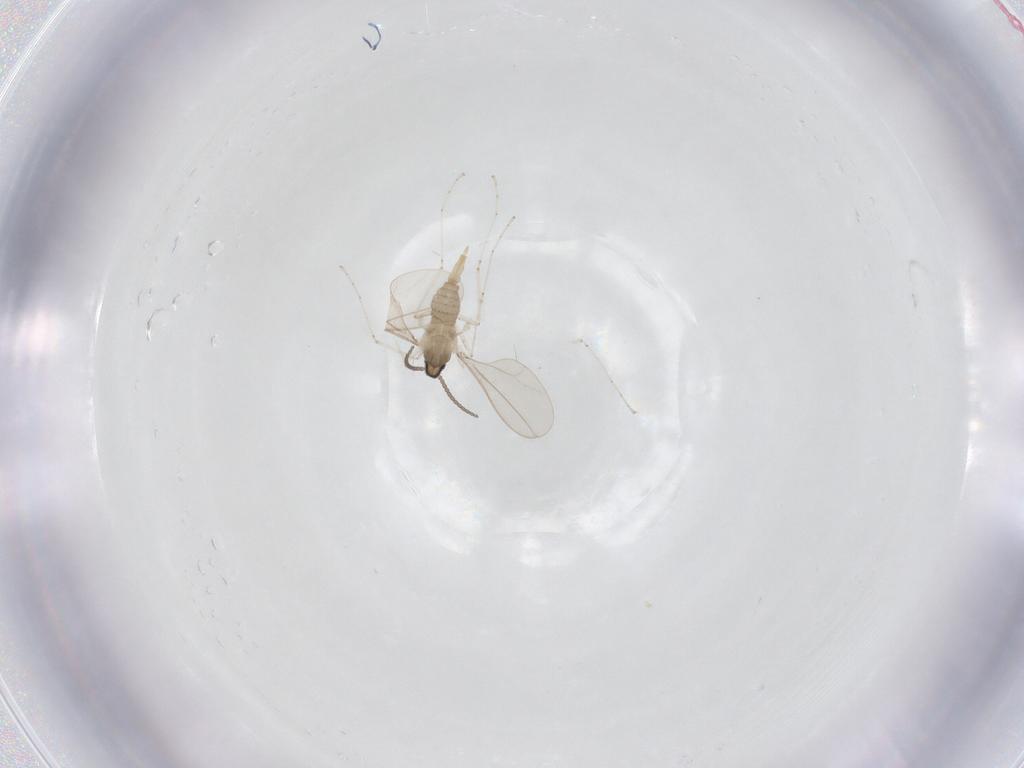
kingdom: Animalia
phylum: Arthropoda
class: Insecta
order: Diptera
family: Cecidomyiidae
